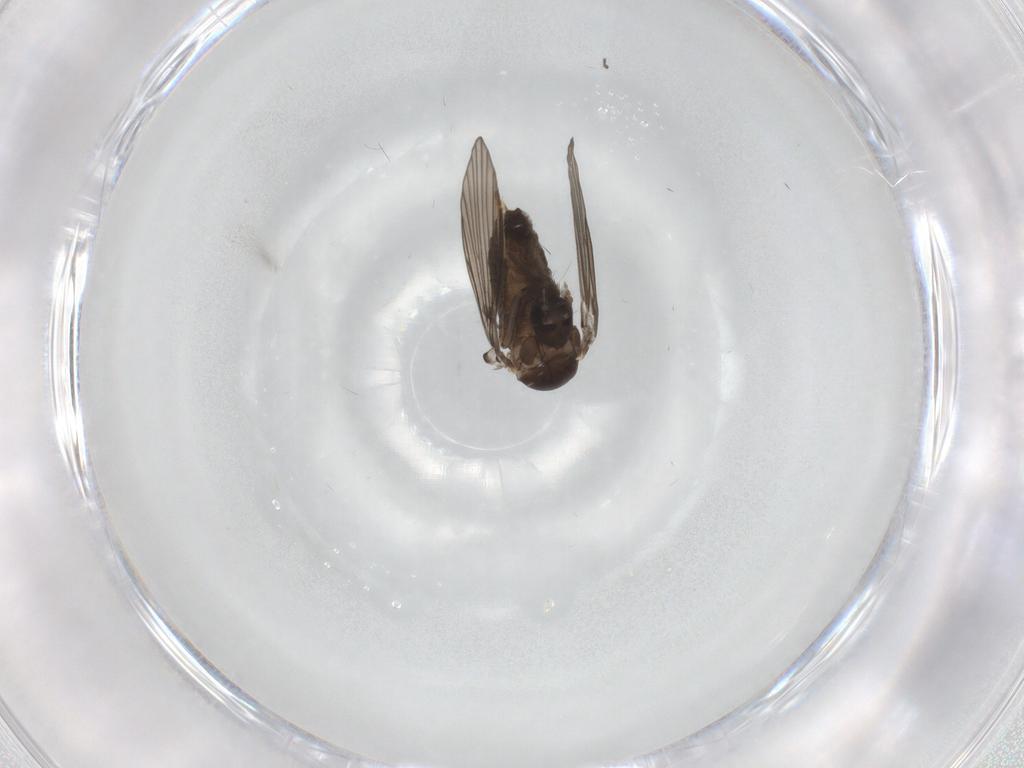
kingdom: Animalia
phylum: Arthropoda
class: Insecta
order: Diptera
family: Psychodidae
